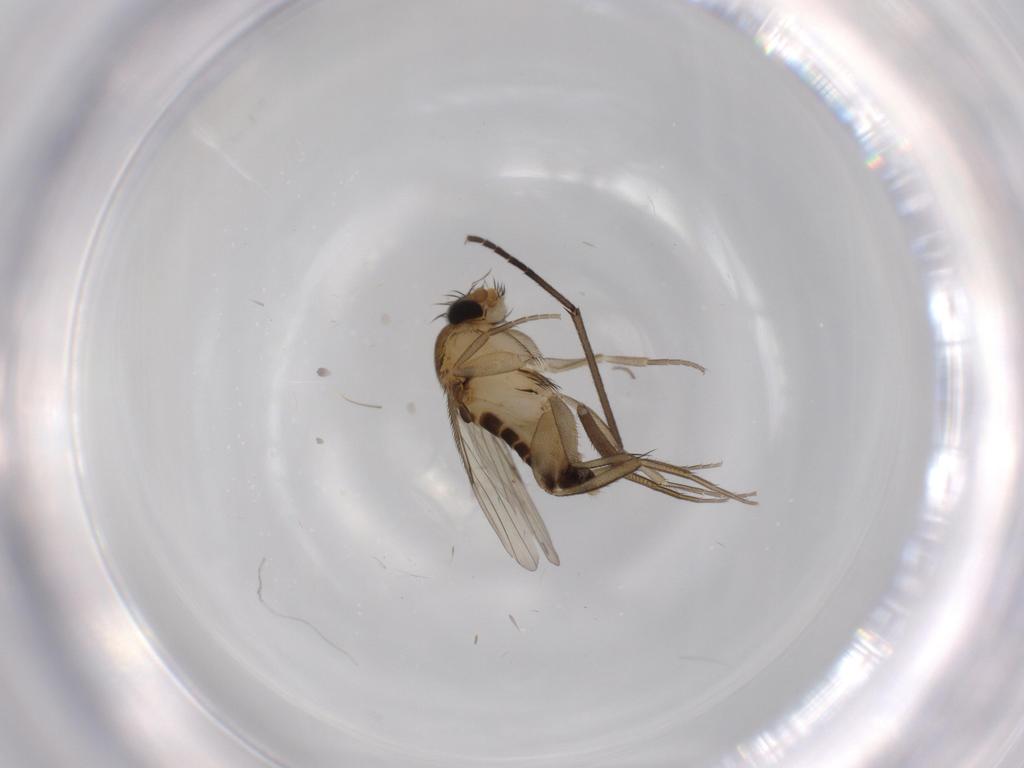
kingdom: Animalia
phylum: Arthropoda
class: Insecta
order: Diptera
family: Phoridae
